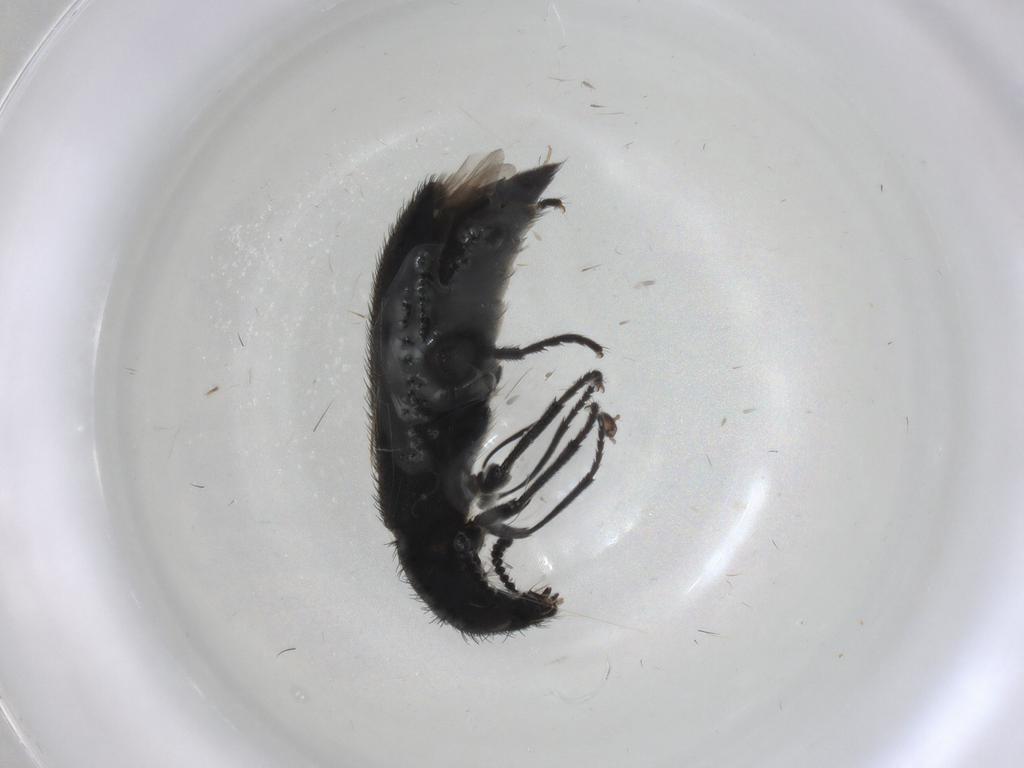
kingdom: Animalia
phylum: Arthropoda
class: Insecta
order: Coleoptera
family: Melyridae
